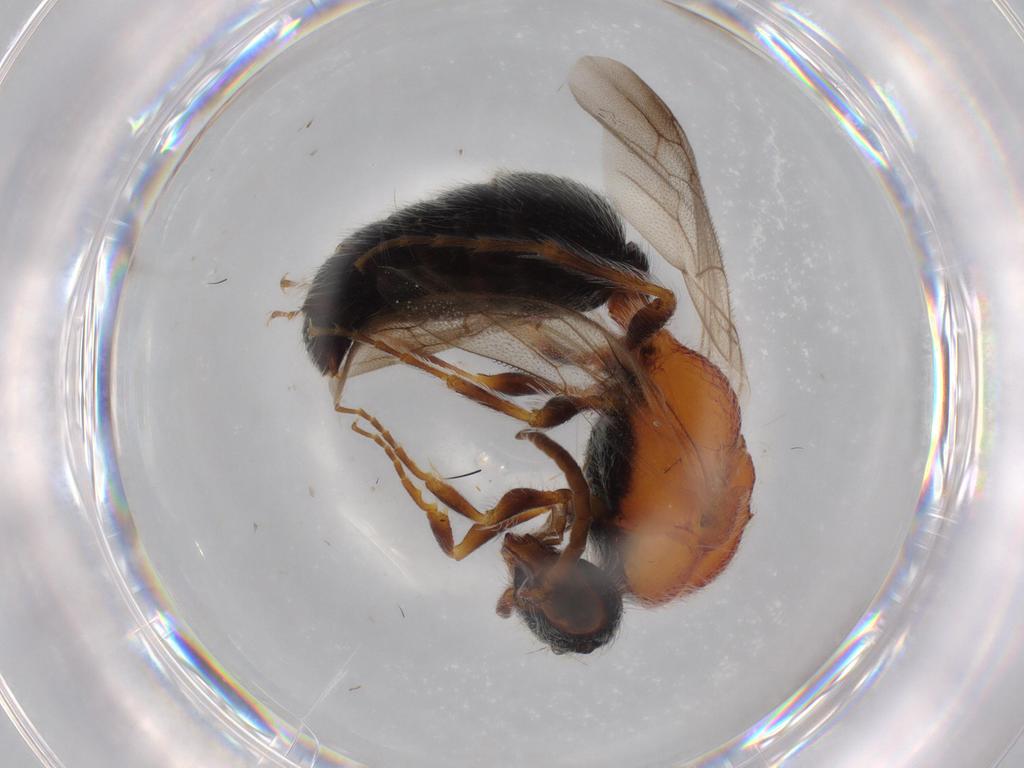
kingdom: Animalia
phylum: Arthropoda
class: Insecta
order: Hymenoptera
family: Mutillidae
